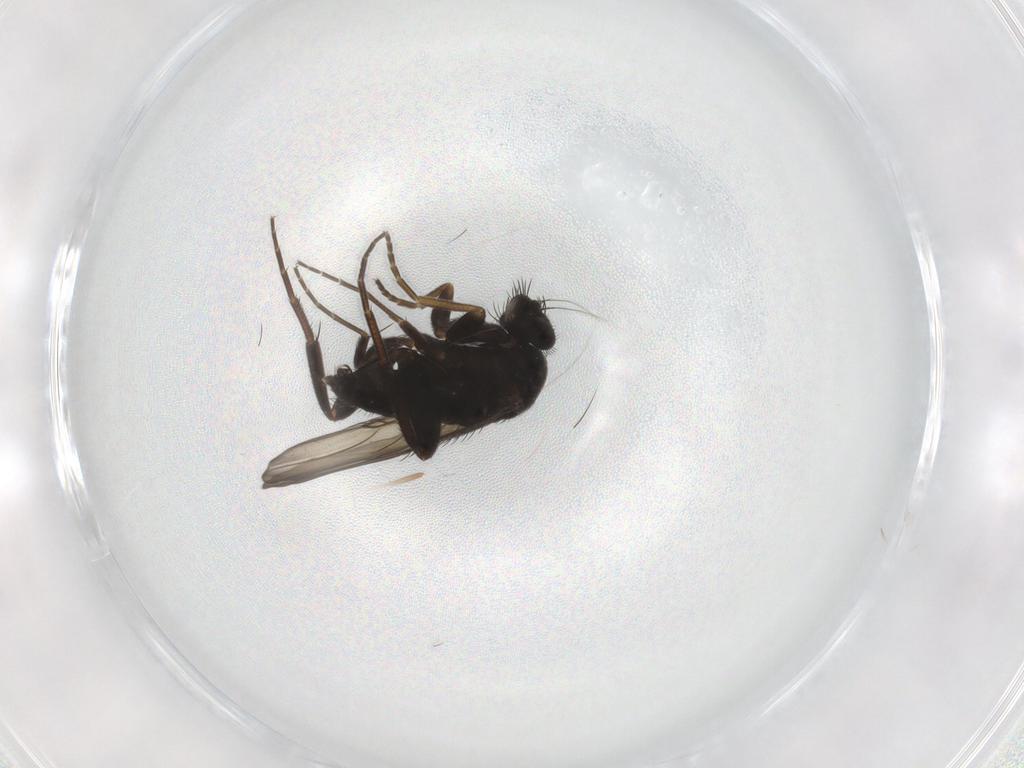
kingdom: Animalia
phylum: Arthropoda
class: Insecta
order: Diptera
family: Phoridae
